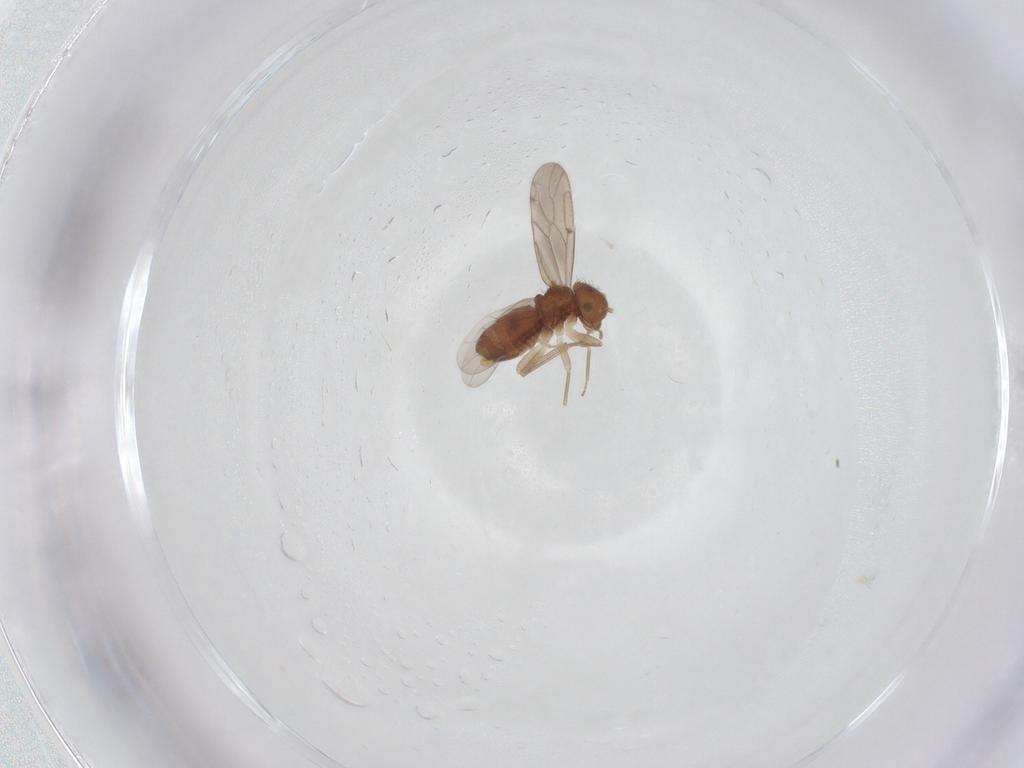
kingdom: Animalia
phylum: Arthropoda
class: Insecta
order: Psocodea
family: Ectopsocidae
